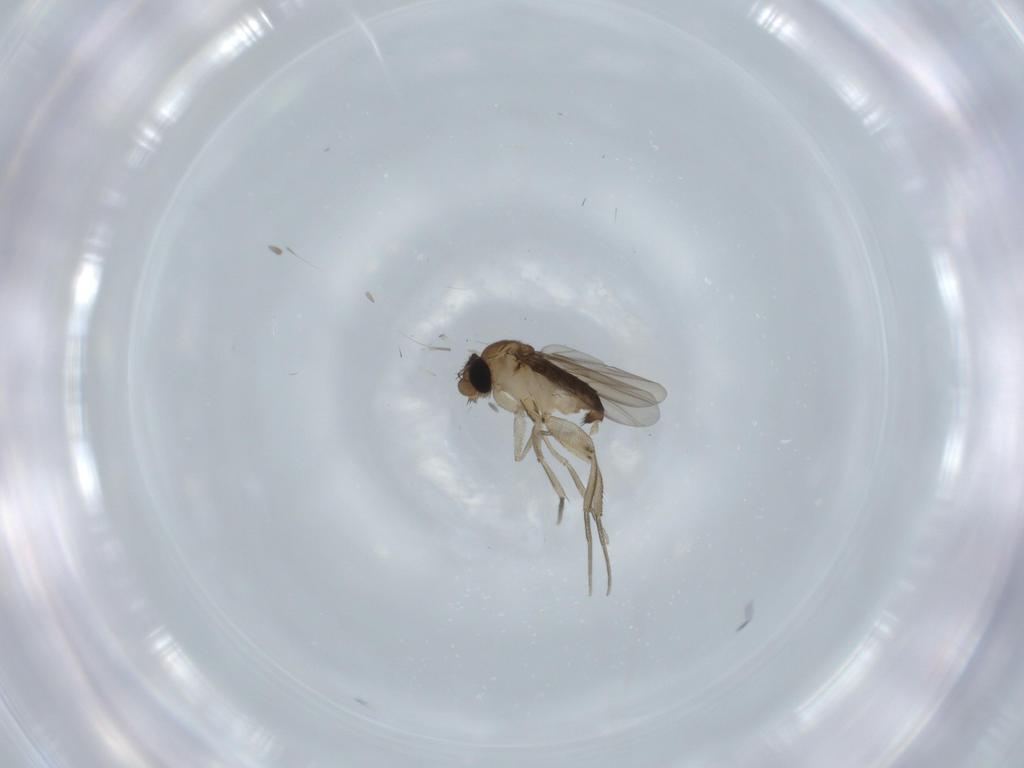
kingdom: Animalia
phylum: Arthropoda
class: Insecta
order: Diptera
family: Phoridae
